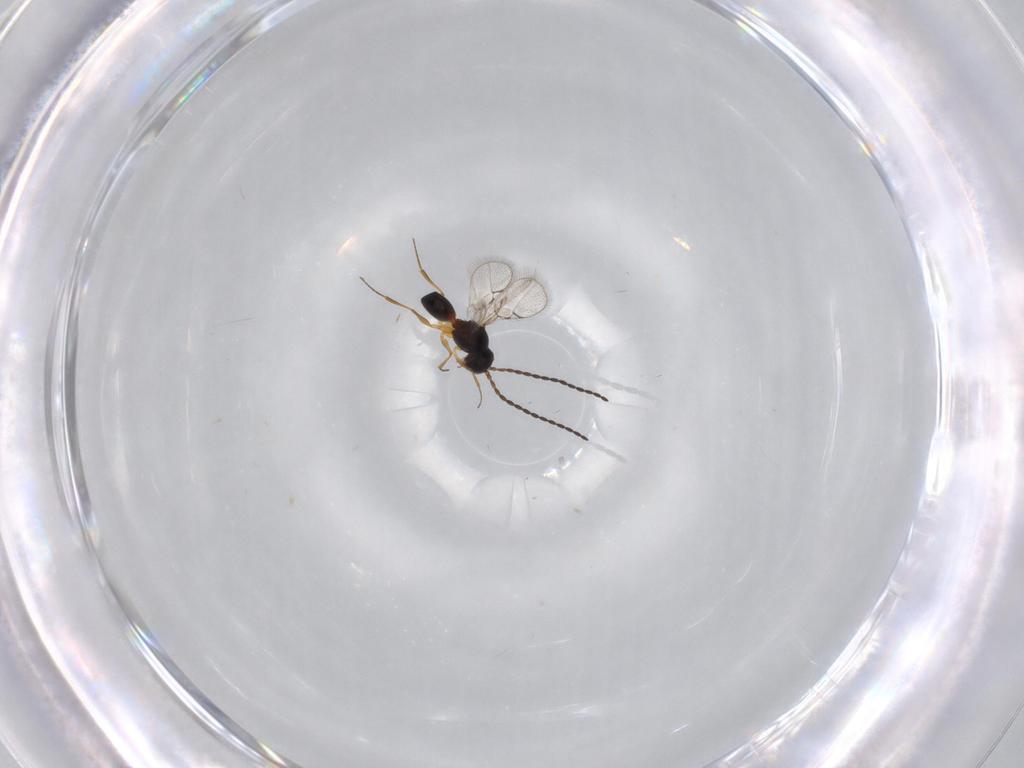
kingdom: Animalia
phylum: Arthropoda
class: Insecta
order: Hymenoptera
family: Figitidae
